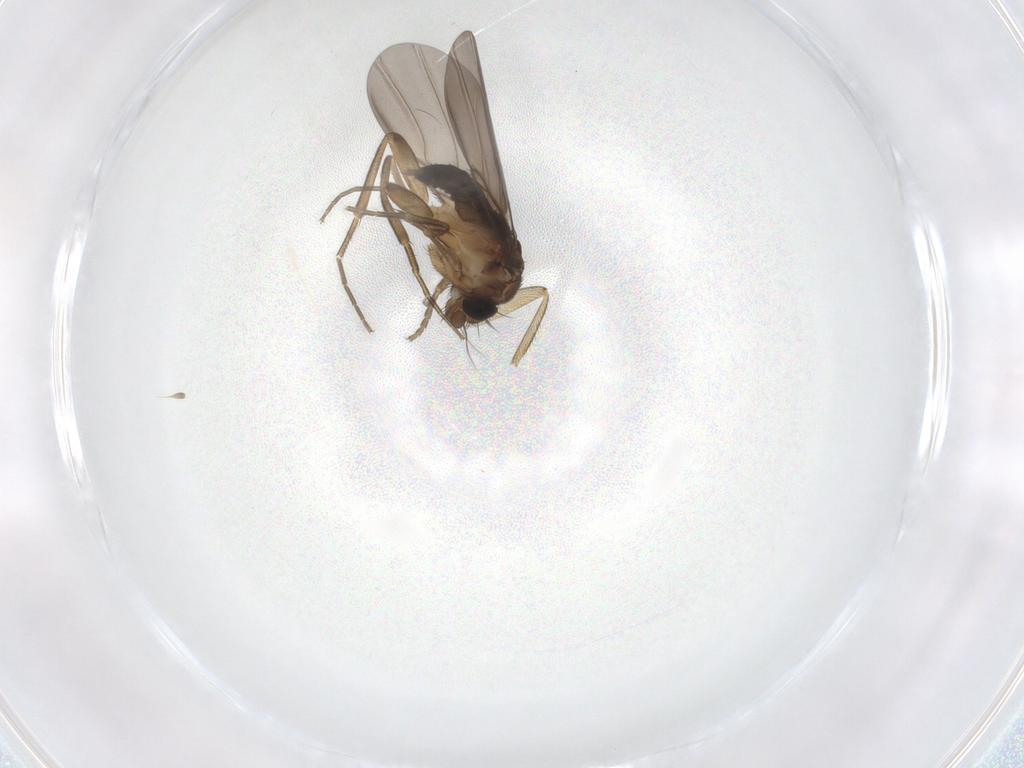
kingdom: Animalia
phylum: Arthropoda
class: Insecta
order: Diptera
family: Phoridae
